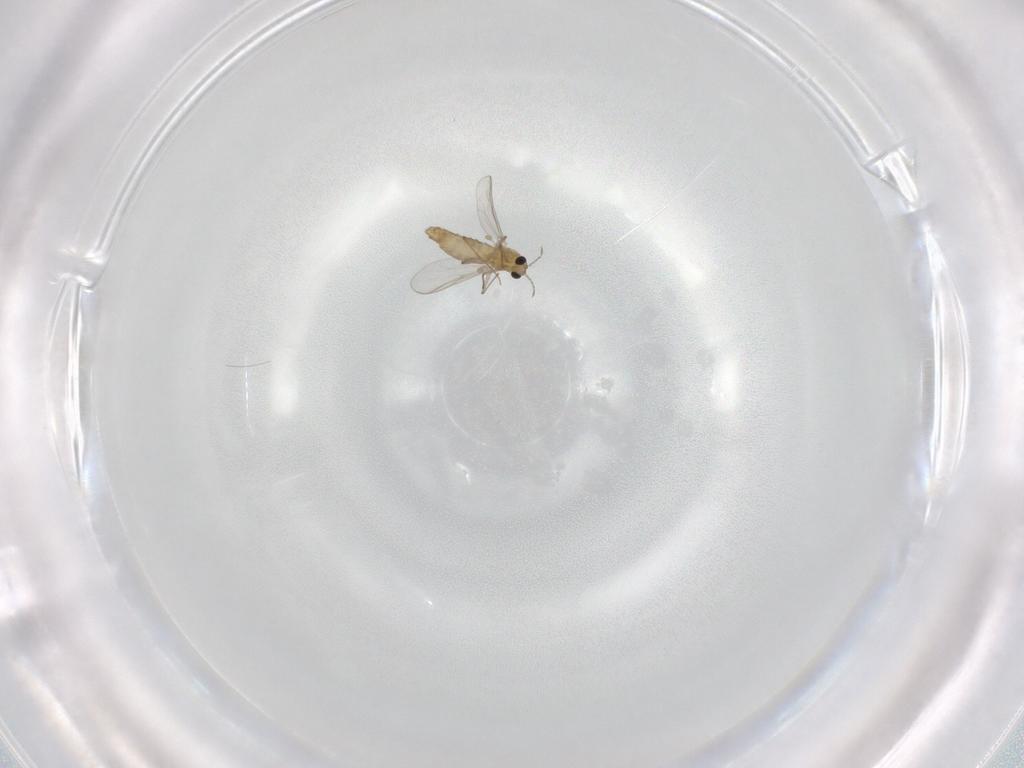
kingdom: Animalia
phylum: Arthropoda
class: Insecta
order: Diptera
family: Chironomidae
